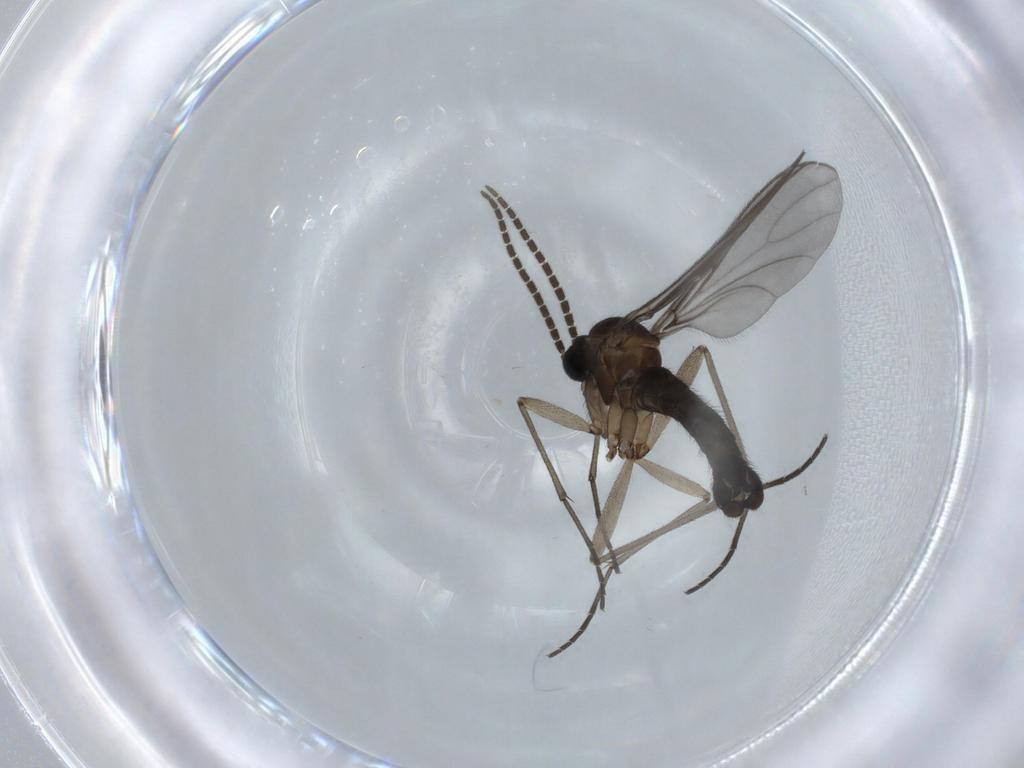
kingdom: Animalia
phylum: Arthropoda
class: Insecta
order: Diptera
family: Sciaridae
